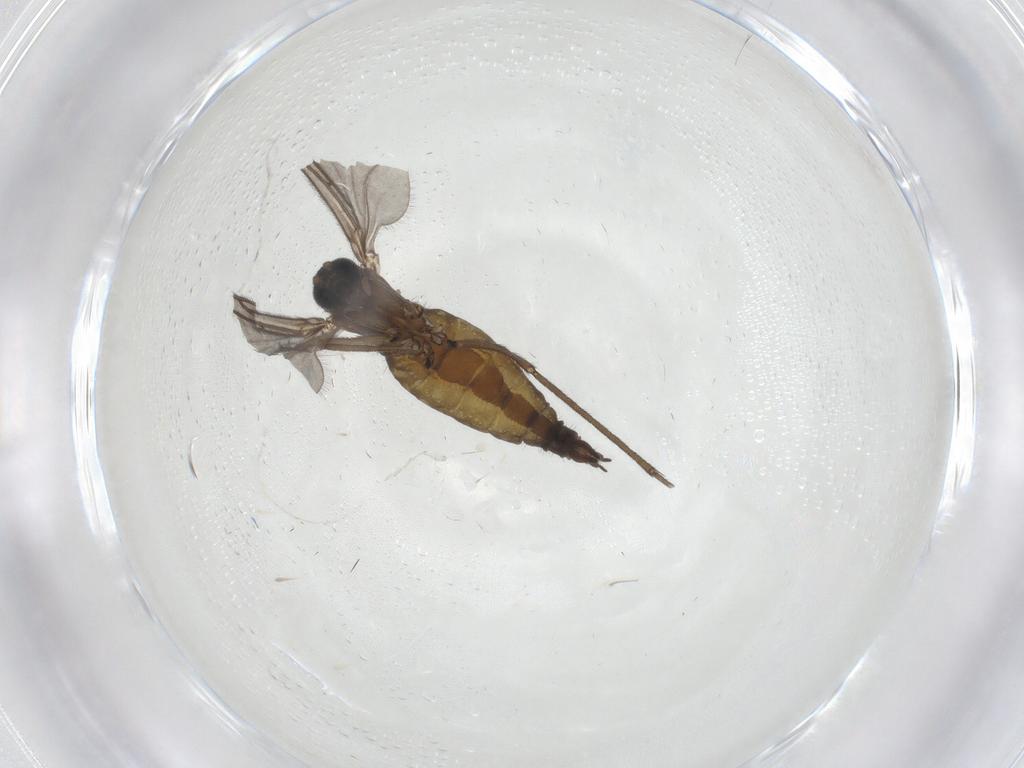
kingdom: Animalia
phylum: Arthropoda
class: Insecta
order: Diptera
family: Sciaridae
